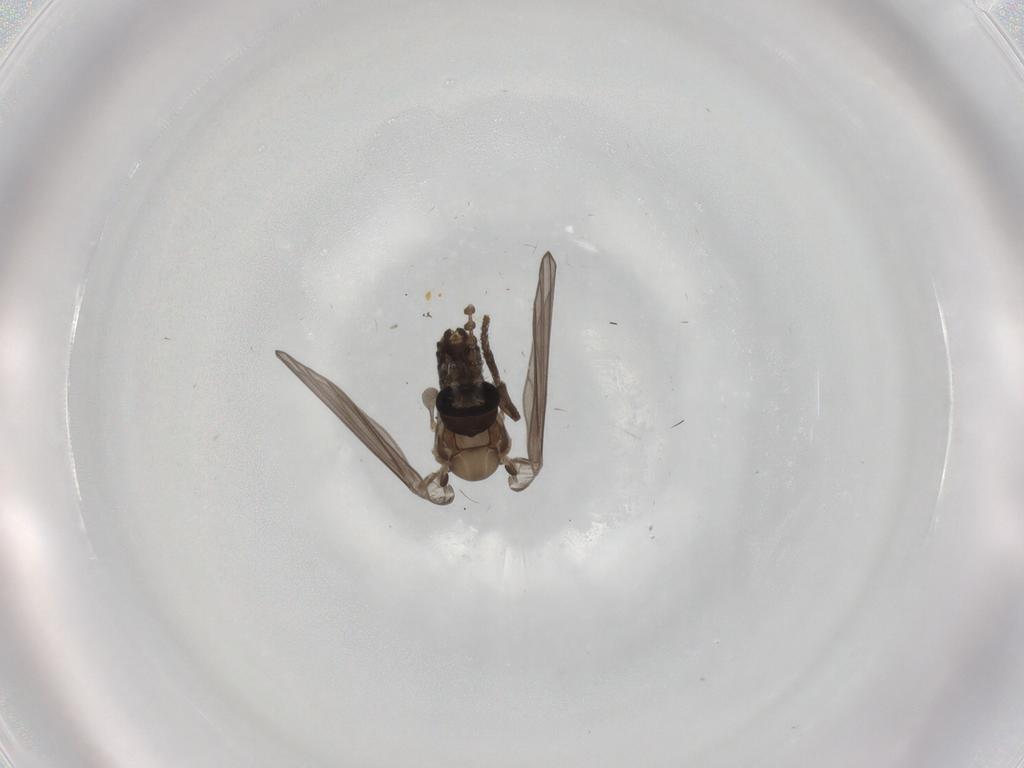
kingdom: Animalia
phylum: Arthropoda
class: Insecta
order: Diptera
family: Psychodidae
